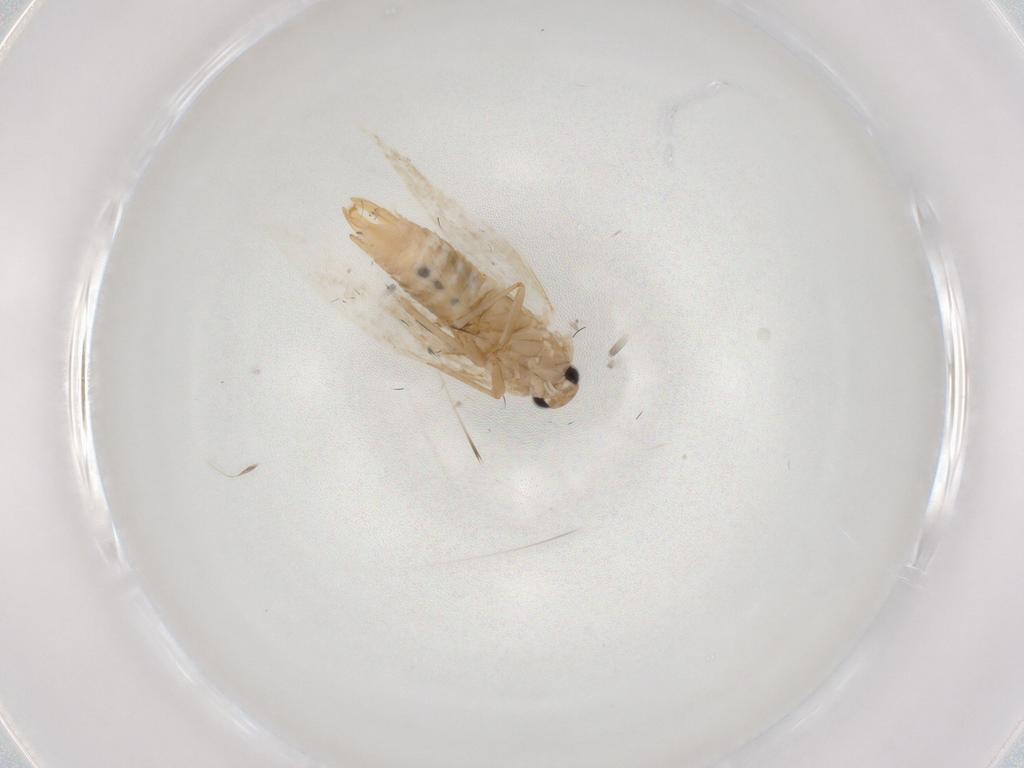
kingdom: Animalia
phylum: Arthropoda
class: Insecta
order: Lepidoptera
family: Bucculatricidae
